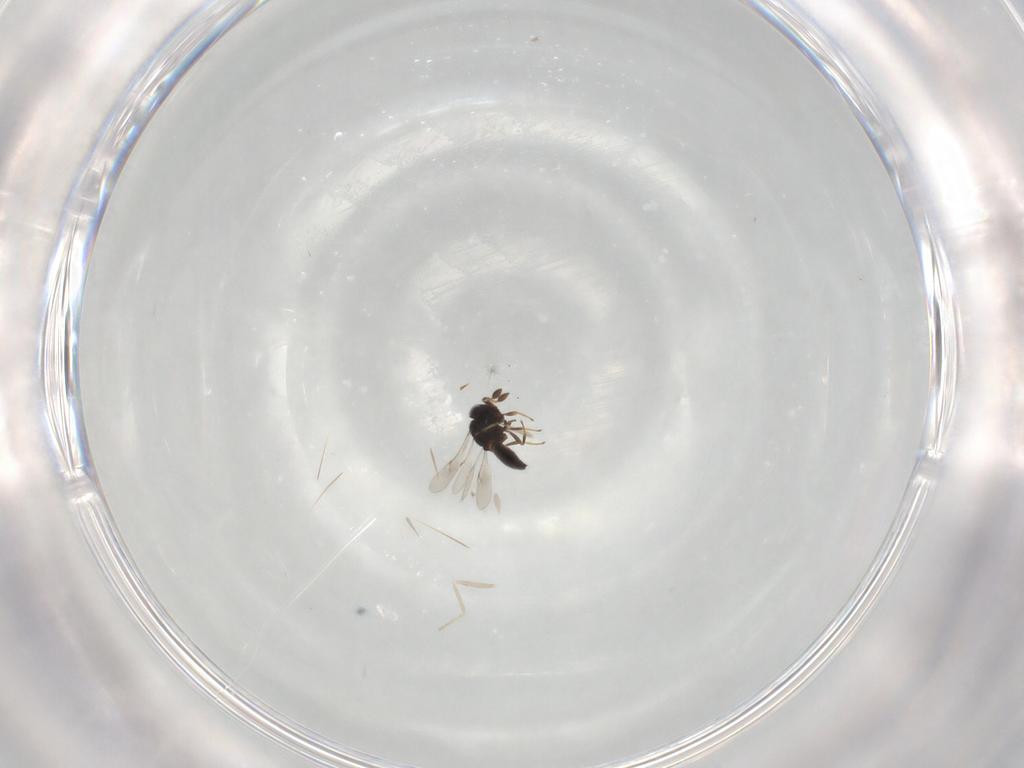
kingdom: Animalia
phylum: Arthropoda
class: Insecta
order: Hymenoptera
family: Scelionidae
